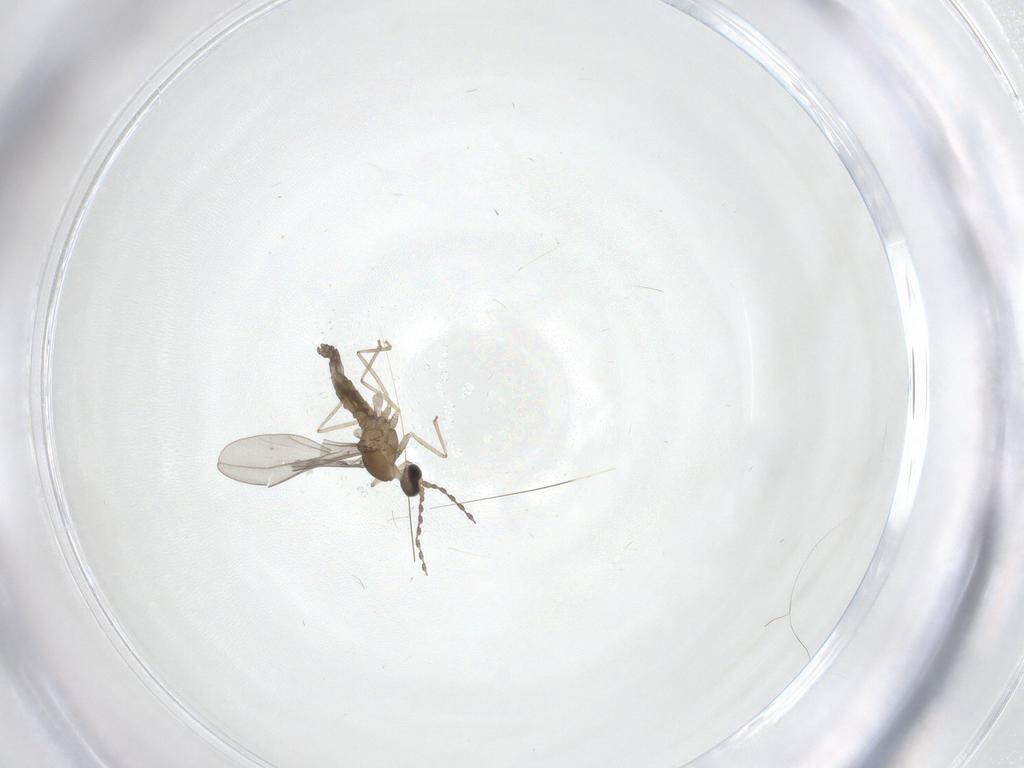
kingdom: Animalia
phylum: Arthropoda
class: Insecta
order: Diptera
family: Cecidomyiidae
